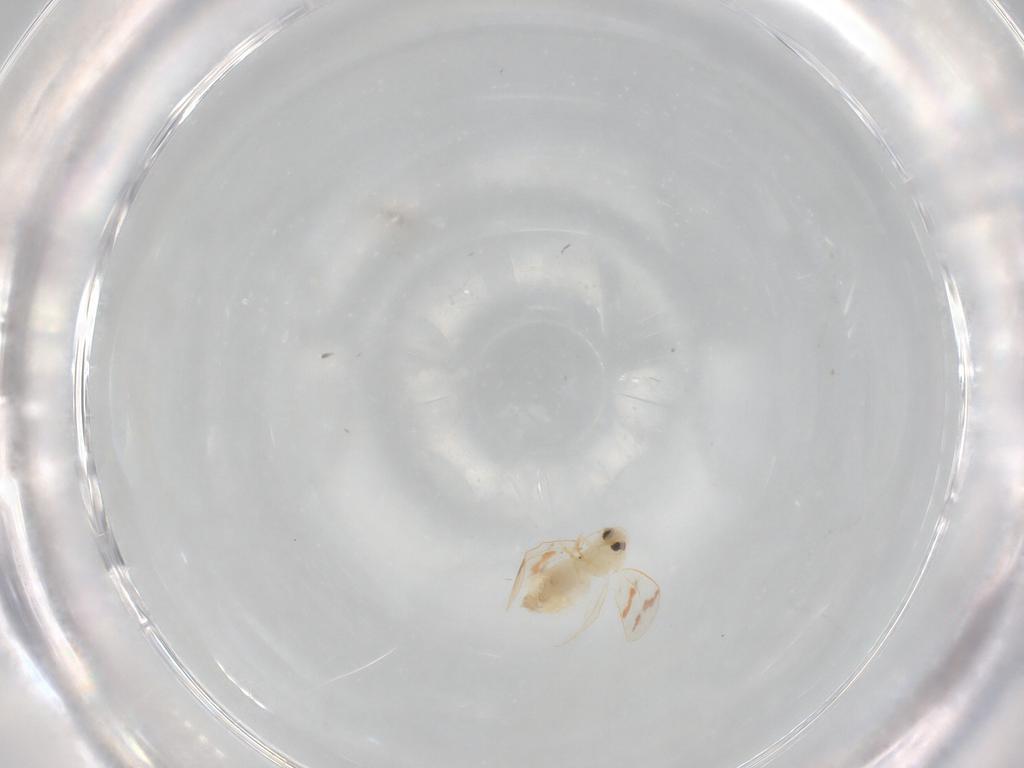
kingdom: Animalia
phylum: Arthropoda
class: Insecta
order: Hemiptera
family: Aleyrodidae
